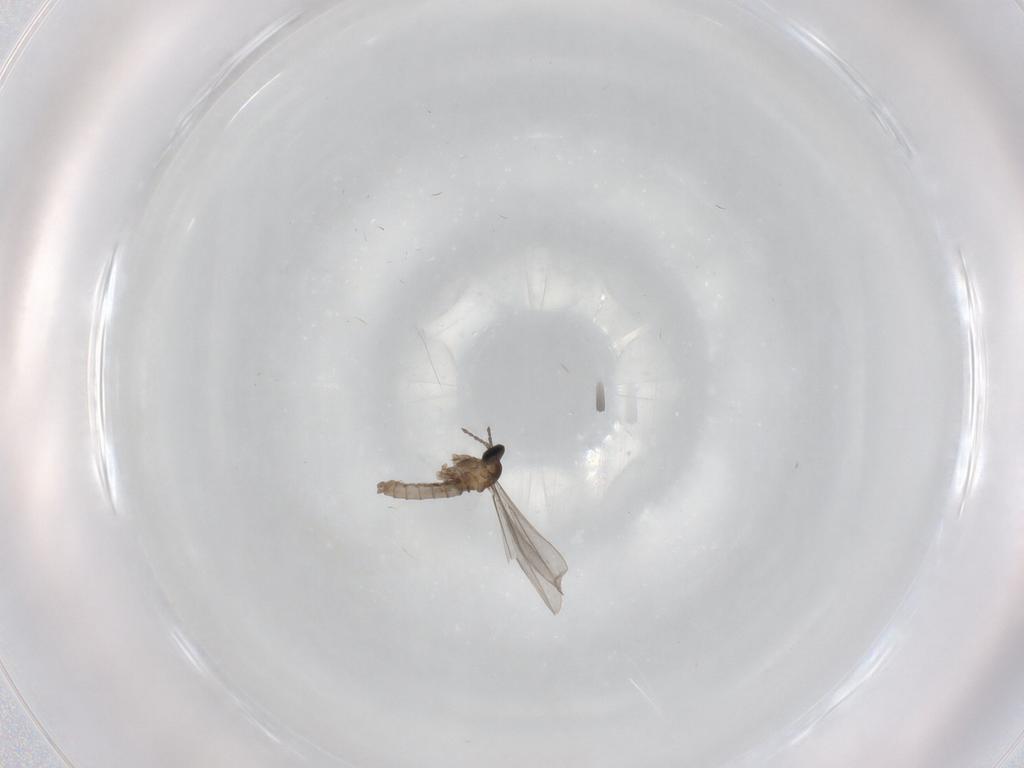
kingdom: Animalia
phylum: Arthropoda
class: Insecta
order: Diptera
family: Cecidomyiidae
